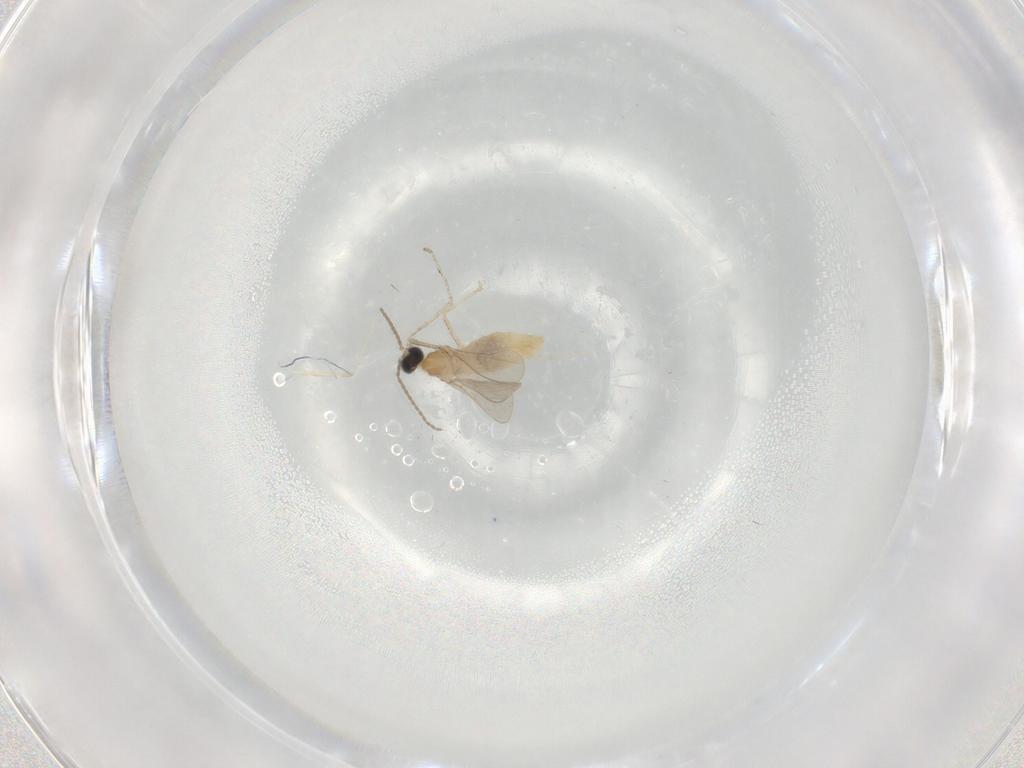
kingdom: Animalia
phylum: Arthropoda
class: Insecta
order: Diptera
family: Cecidomyiidae
